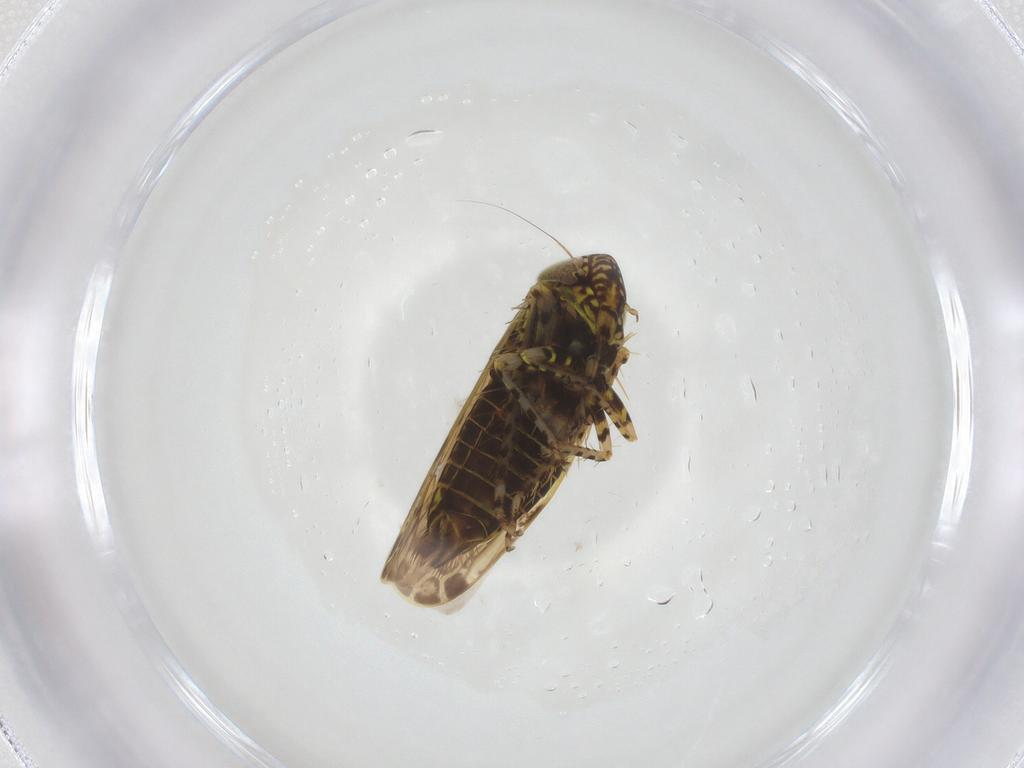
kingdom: Animalia
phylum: Arthropoda
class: Insecta
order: Hemiptera
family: Cicadellidae
